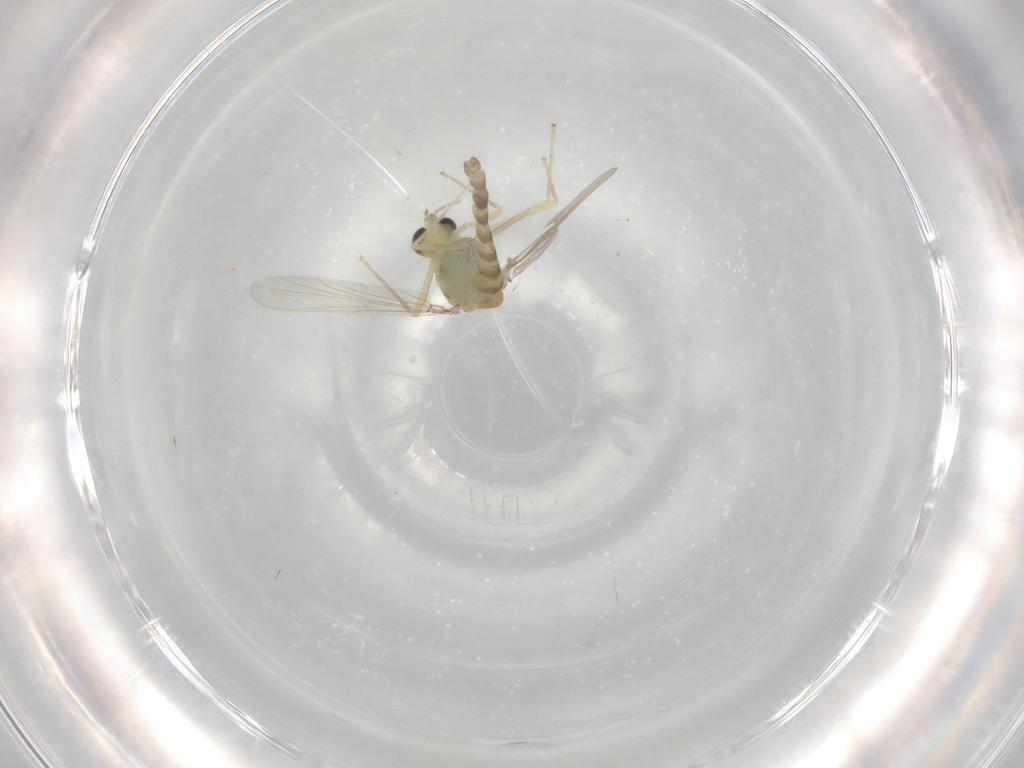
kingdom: Animalia
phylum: Arthropoda
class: Insecta
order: Diptera
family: Chironomidae
